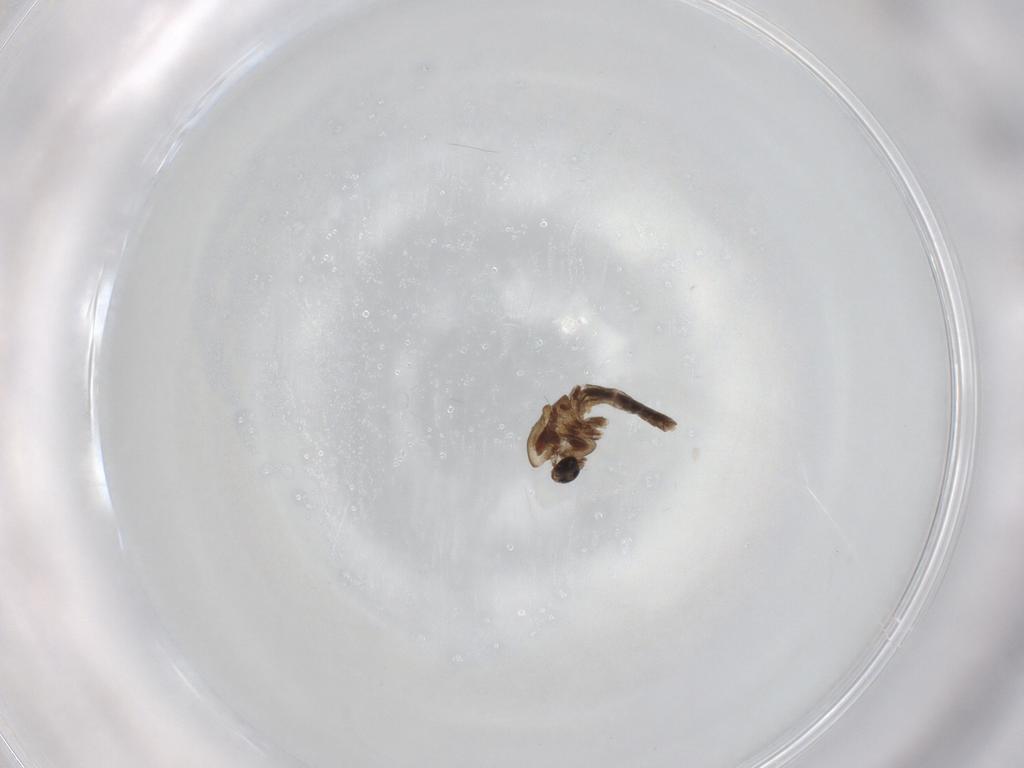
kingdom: Animalia
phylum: Arthropoda
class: Insecta
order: Diptera
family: Chironomidae
